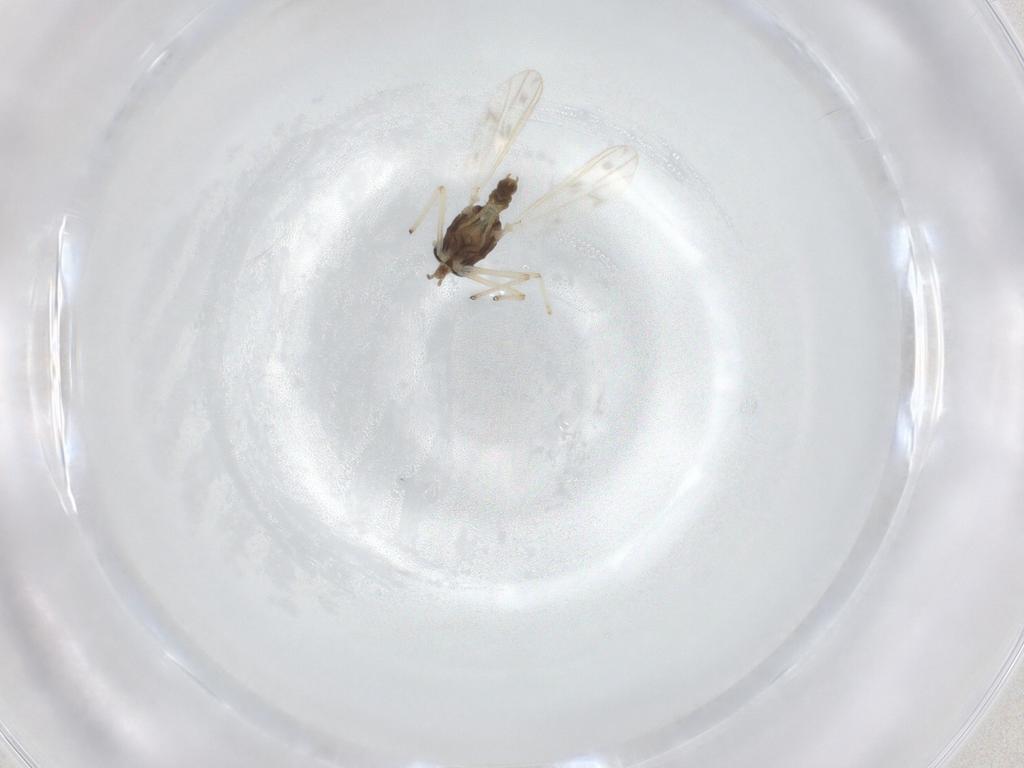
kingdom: Animalia
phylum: Arthropoda
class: Insecta
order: Diptera
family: Chironomidae
